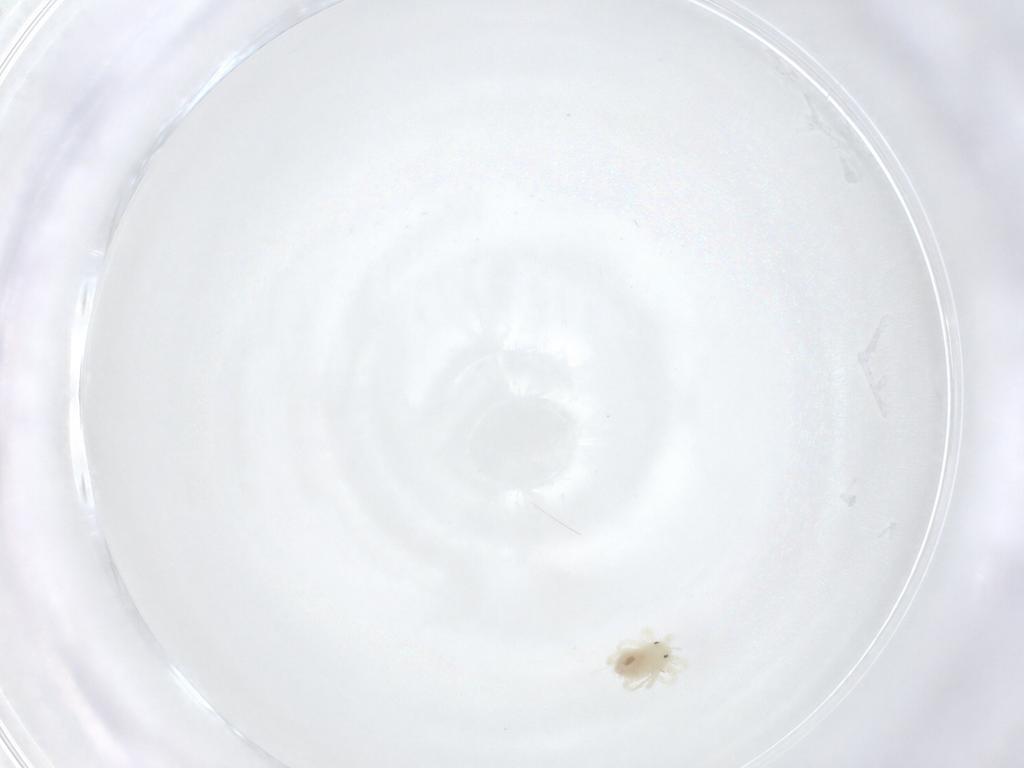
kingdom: Animalia
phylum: Arthropoda
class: Arachnida
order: Trombidiformes
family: Anystidae
